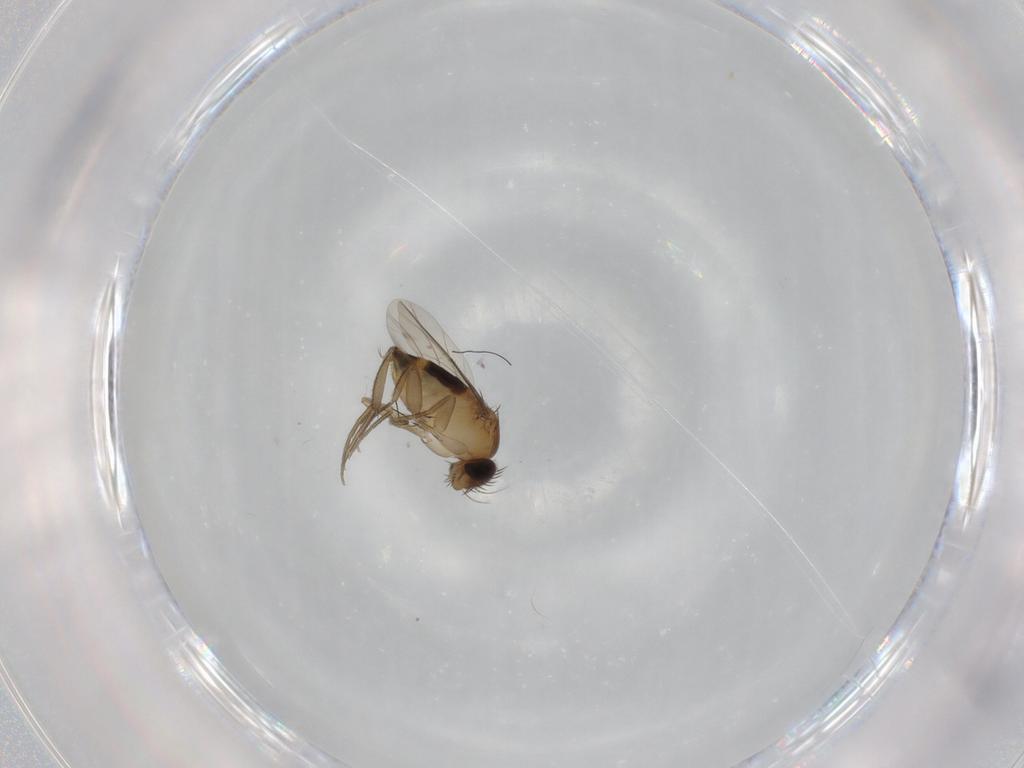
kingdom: Animalia
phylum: Arthropoda
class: Insecta
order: Diptera
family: Phoridae
